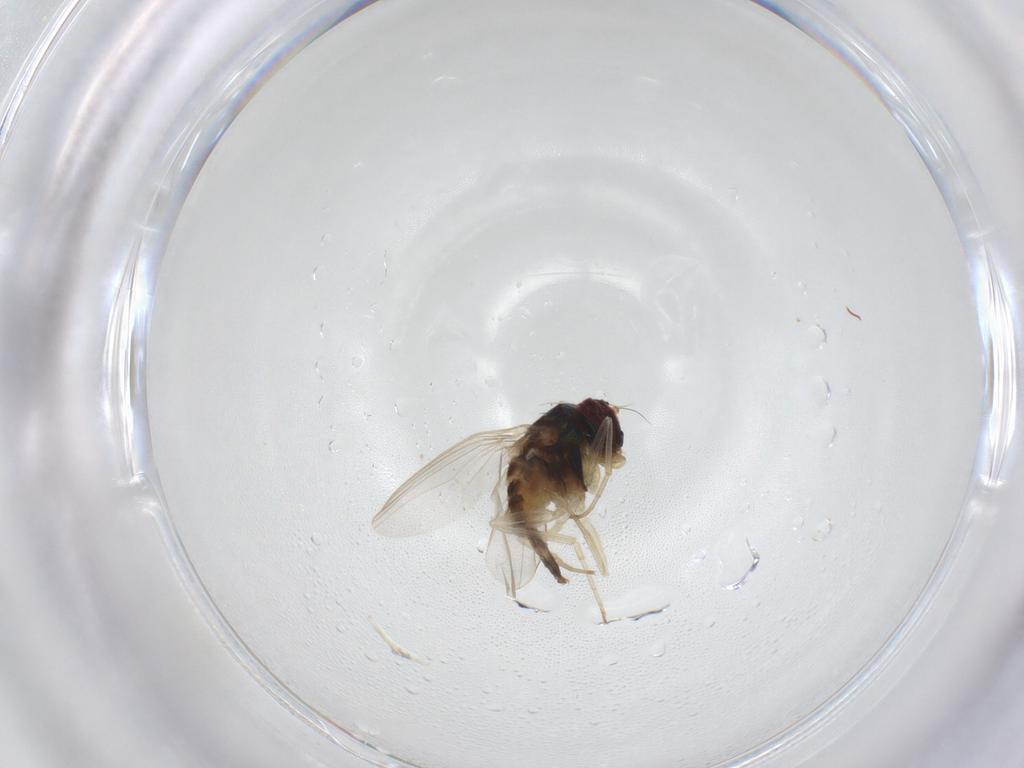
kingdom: Animalia
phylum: Arthropoda
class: Insecta
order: Diptera
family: Dolichopodidae
